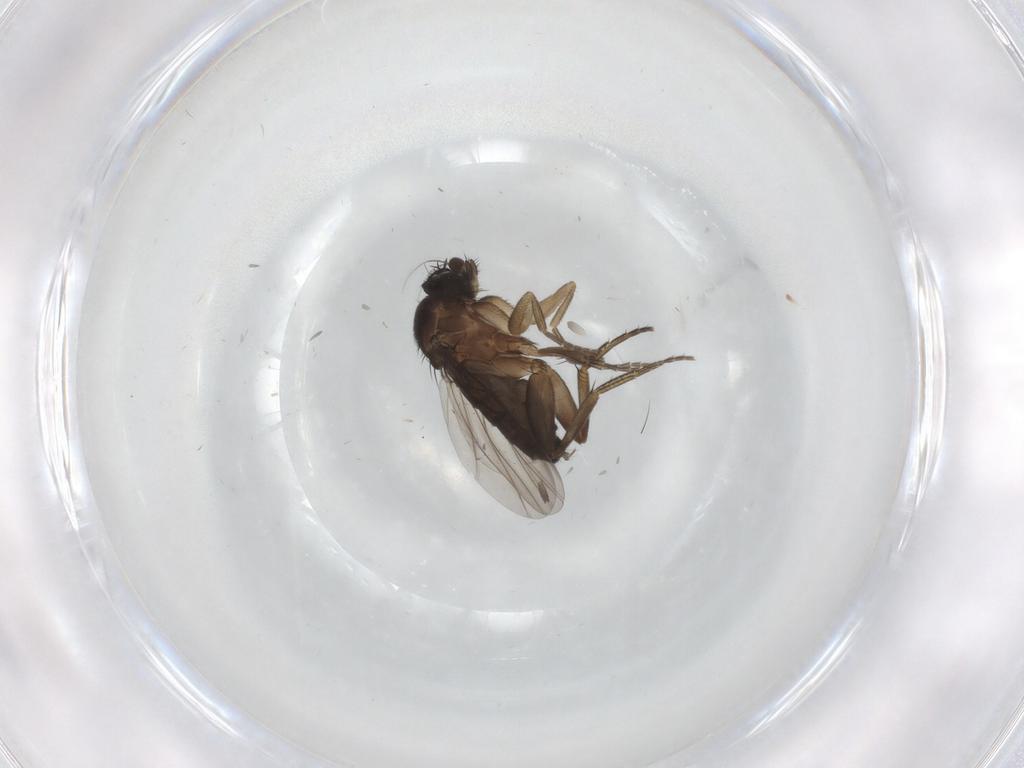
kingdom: Animalia
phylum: Arthropoda
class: Insecta
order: Diptera
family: Phoridae
